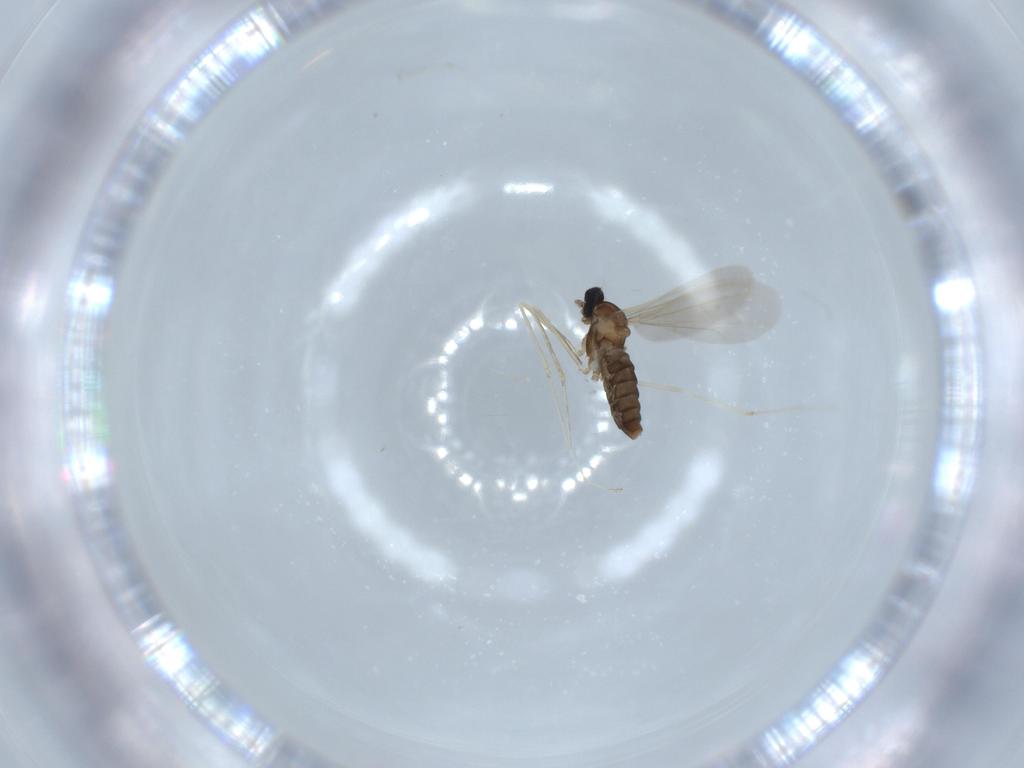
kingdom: Animalia
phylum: Arthropoda
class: Insecta
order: Diptera
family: Cecidomyiidae
